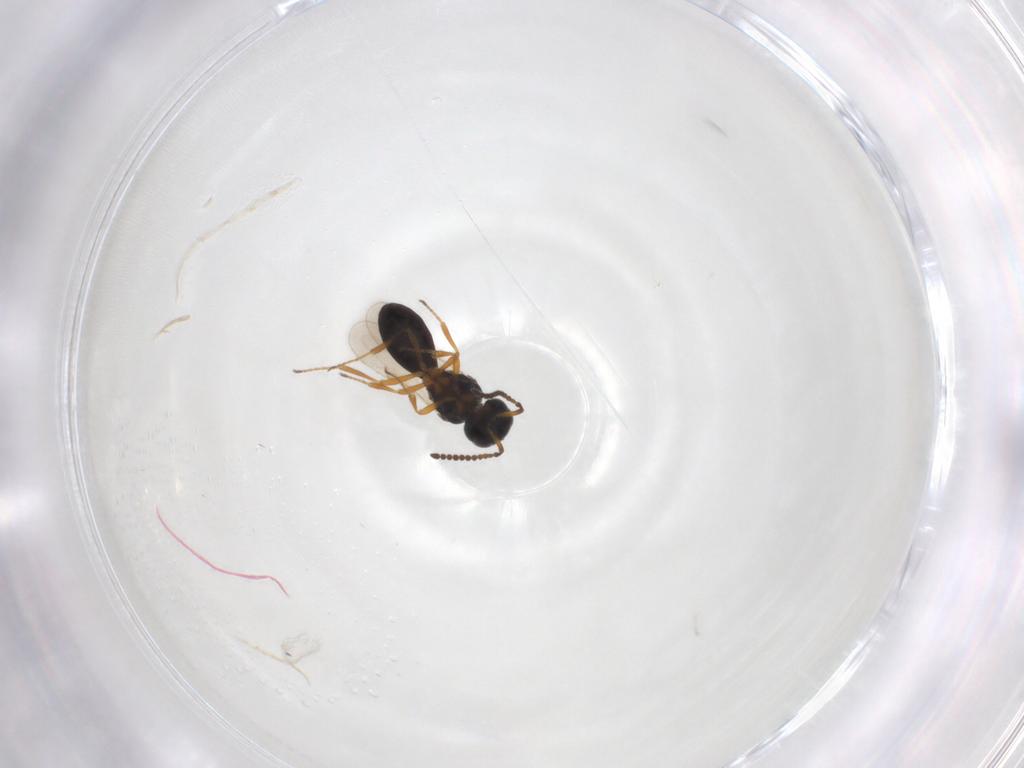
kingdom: Animalia
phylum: Arthropoda
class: Insecta
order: Hymenoptera
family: Scelionidae
